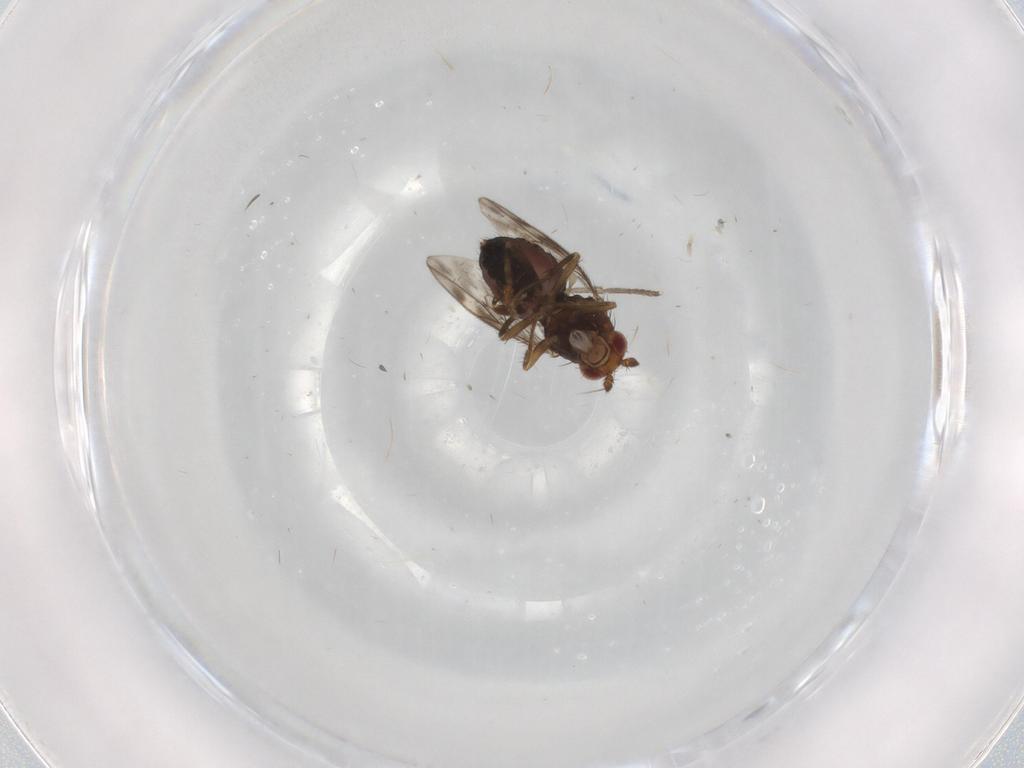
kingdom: Animalia
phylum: Arthropoda
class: Insecta
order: Diptera
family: Sphaeroceridae
